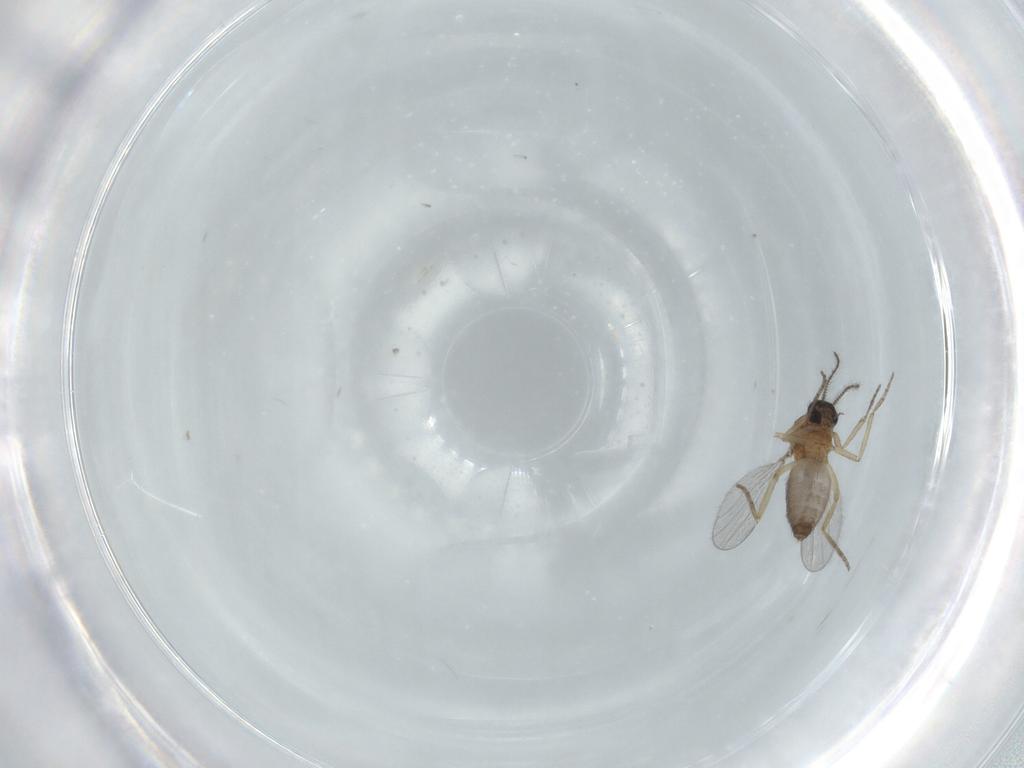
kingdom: Animalia
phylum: Arthropoda
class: Insecta
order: Diptera
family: Ceratopogonidae
